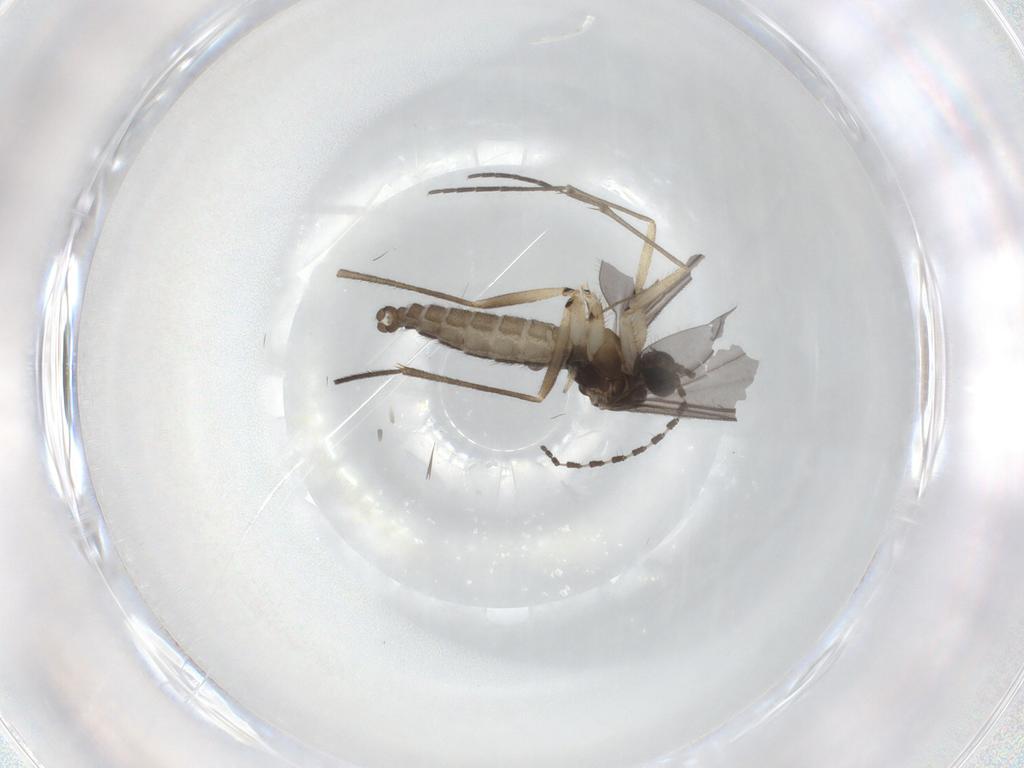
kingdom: Animalia
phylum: Arthropoda
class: Insecta
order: Diptera
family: Sciaridae
